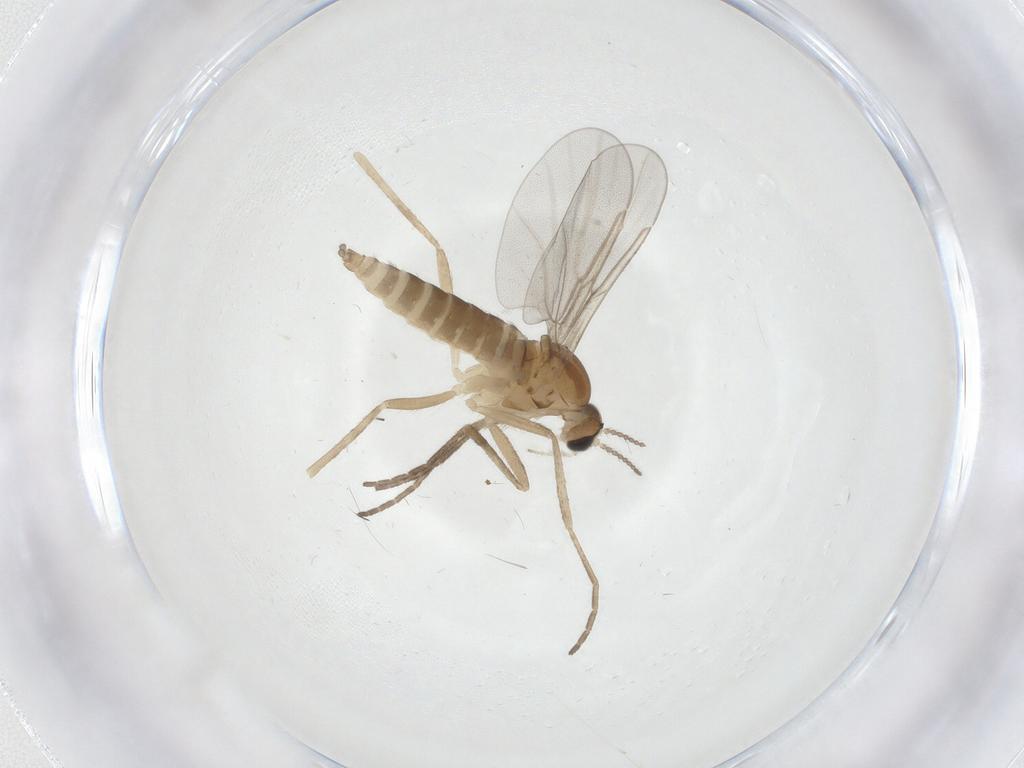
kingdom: Animalia
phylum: Arthropoda
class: Insecta
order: Diptera
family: Cecidomyiidae
